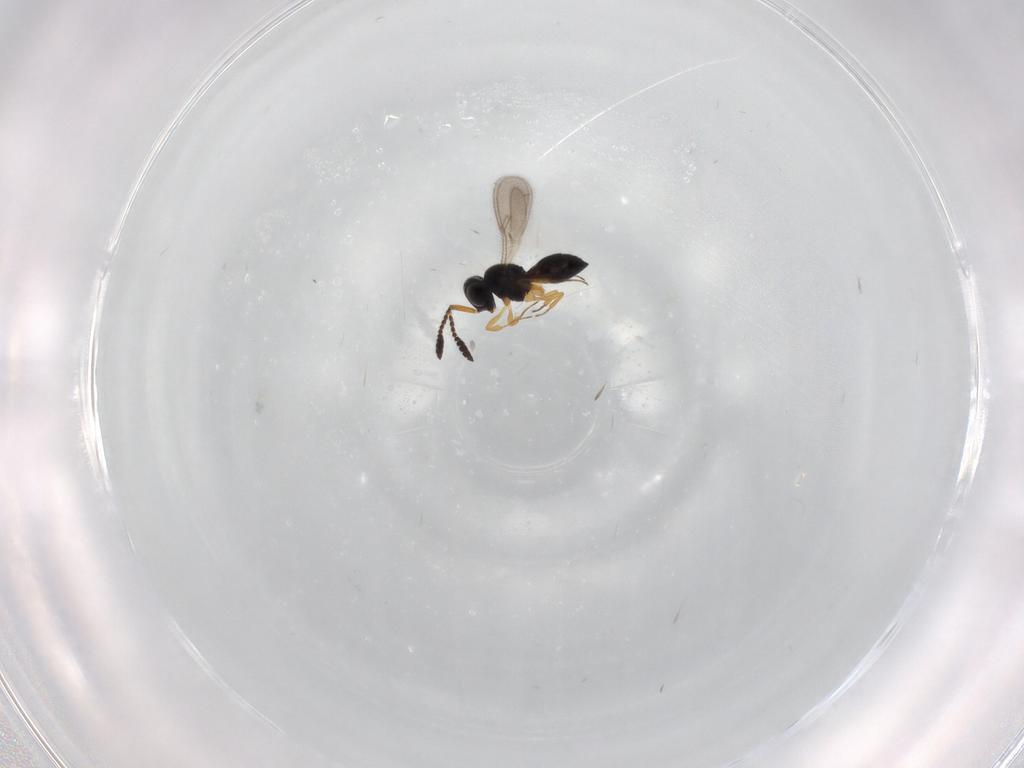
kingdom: Animalia
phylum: Arthropoda
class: Insecta
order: Hymenoptera
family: Scelionidae
